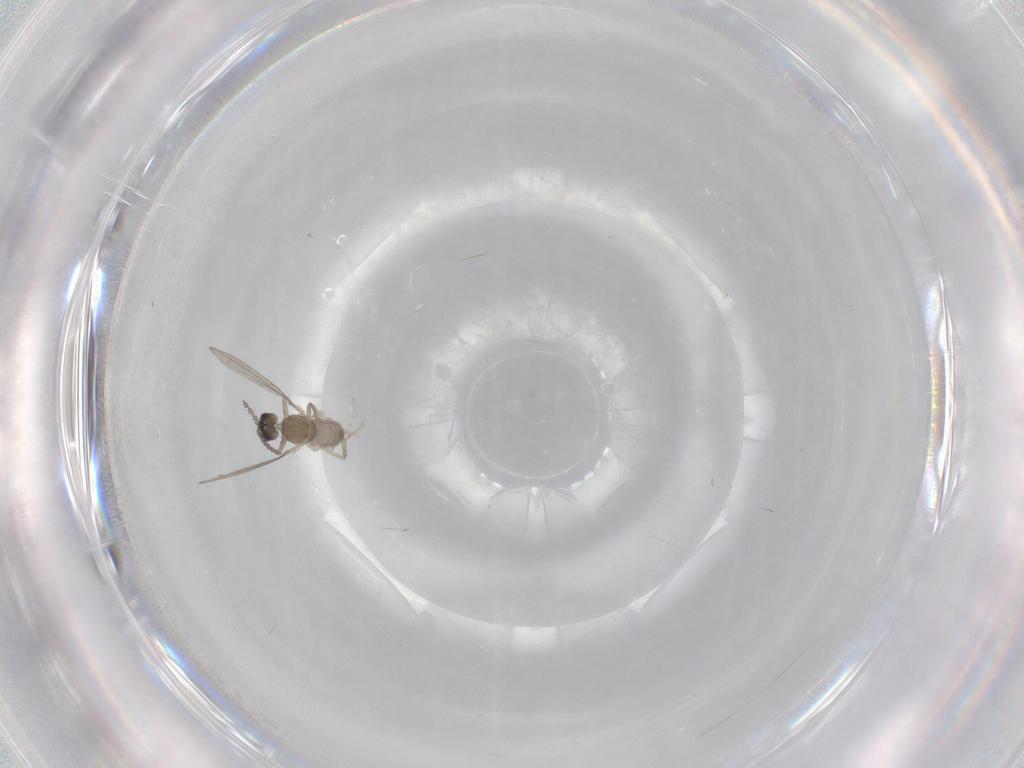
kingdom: Animalia
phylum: Arthropoda
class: Insecta
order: Diptera
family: Cecidomyiidae
